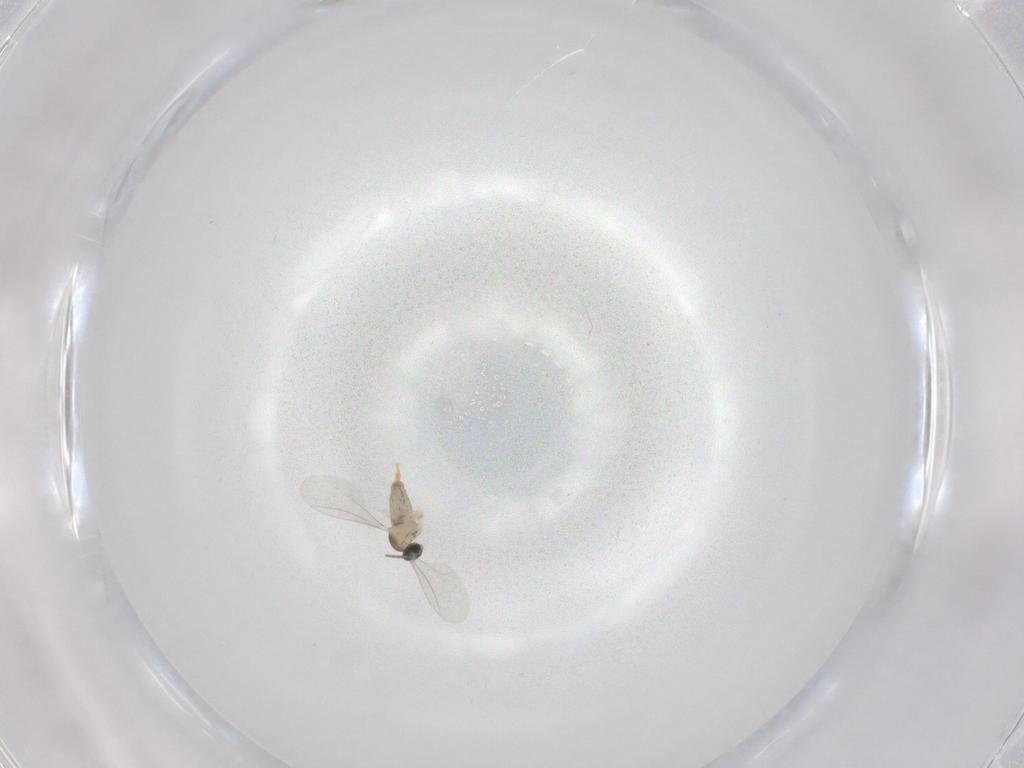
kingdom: Animalia
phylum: Arthropoda
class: Insecta
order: Diptera
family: Cecidomyiidae
